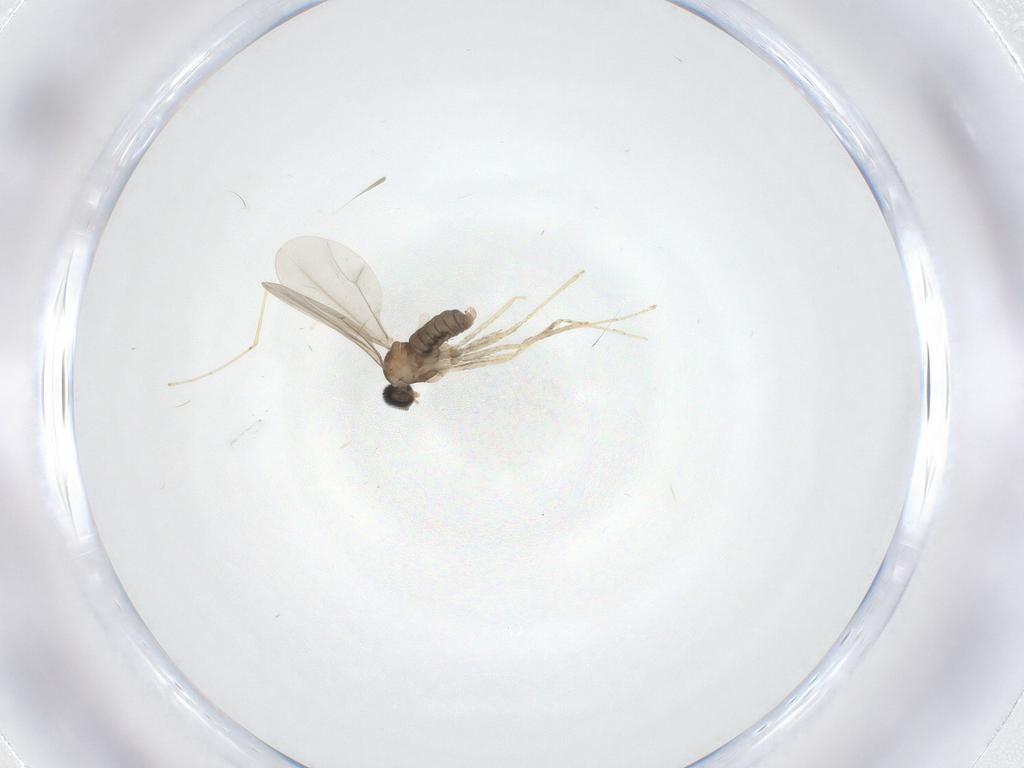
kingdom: Animalia
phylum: Arthropoda
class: Insecta
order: Diptera
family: Cecidomyiidae
